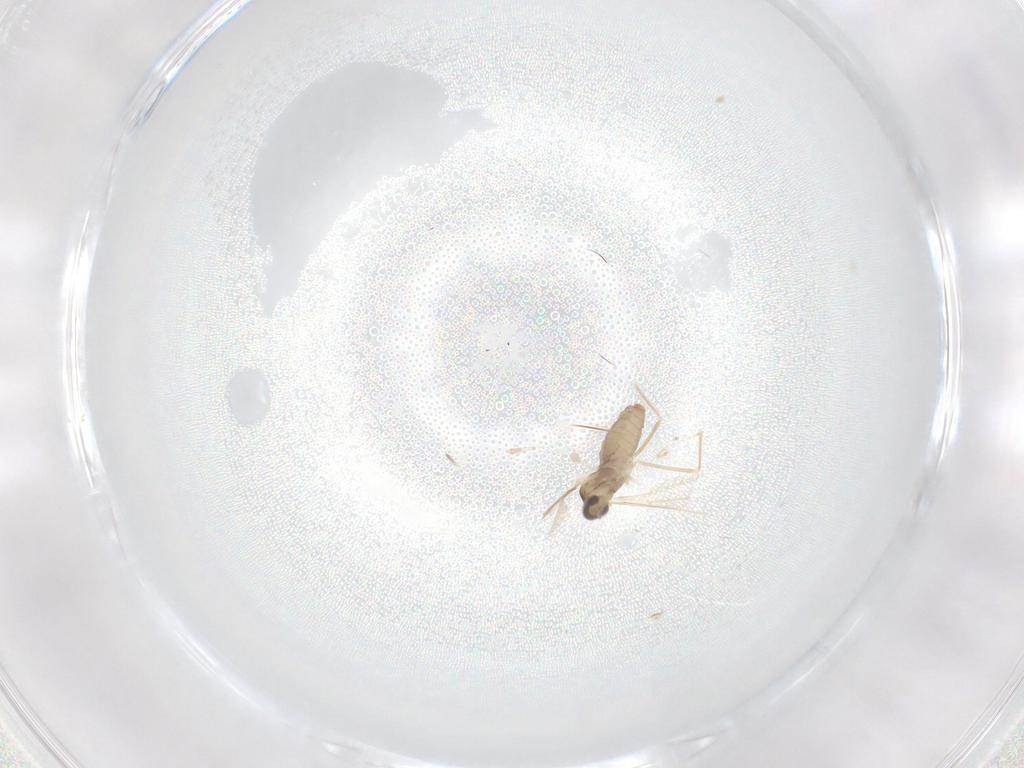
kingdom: Animalia
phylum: Arthropoda
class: Insecta
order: Diptera
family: Cecidomyiidae
